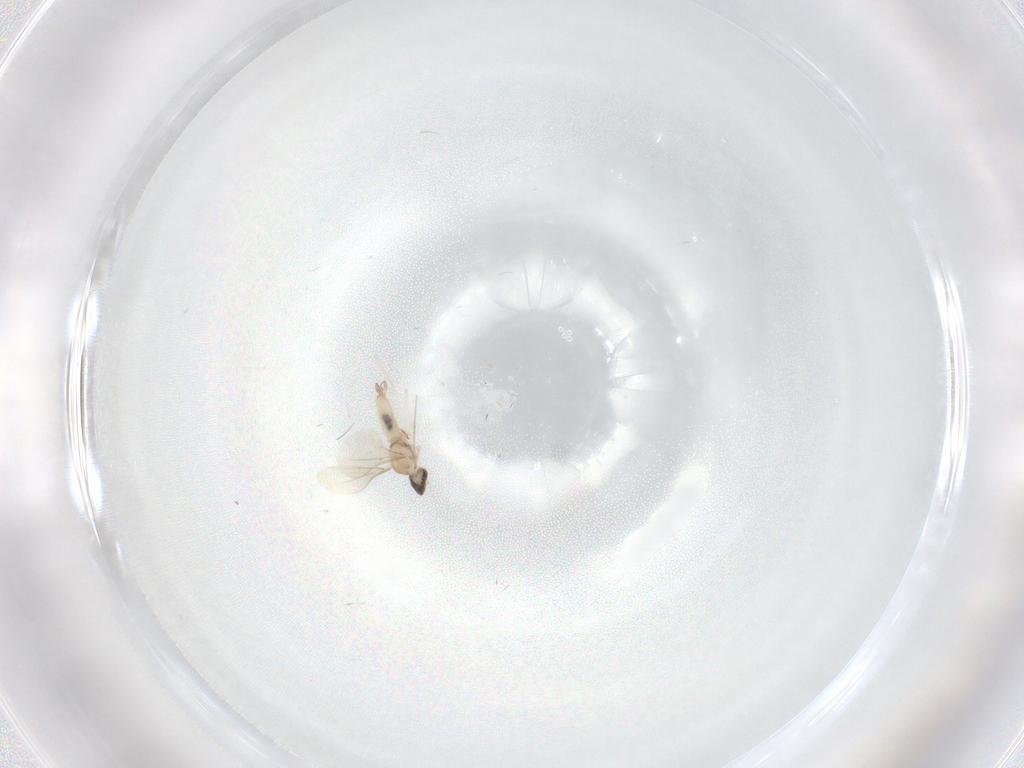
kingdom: Animalia
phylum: Arthropoda
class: Insecta
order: Diptera
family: Cecidomyiidae
